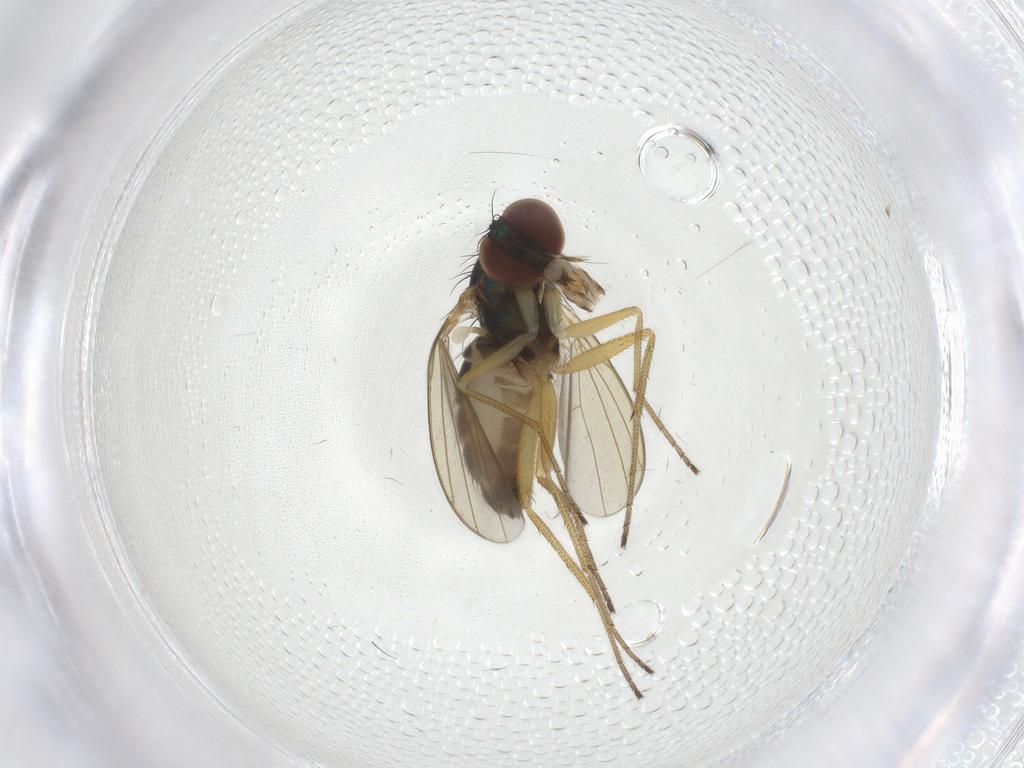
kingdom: Animalia
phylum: Arthropoda
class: Insecta
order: Diptera
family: Dolichopodidae
